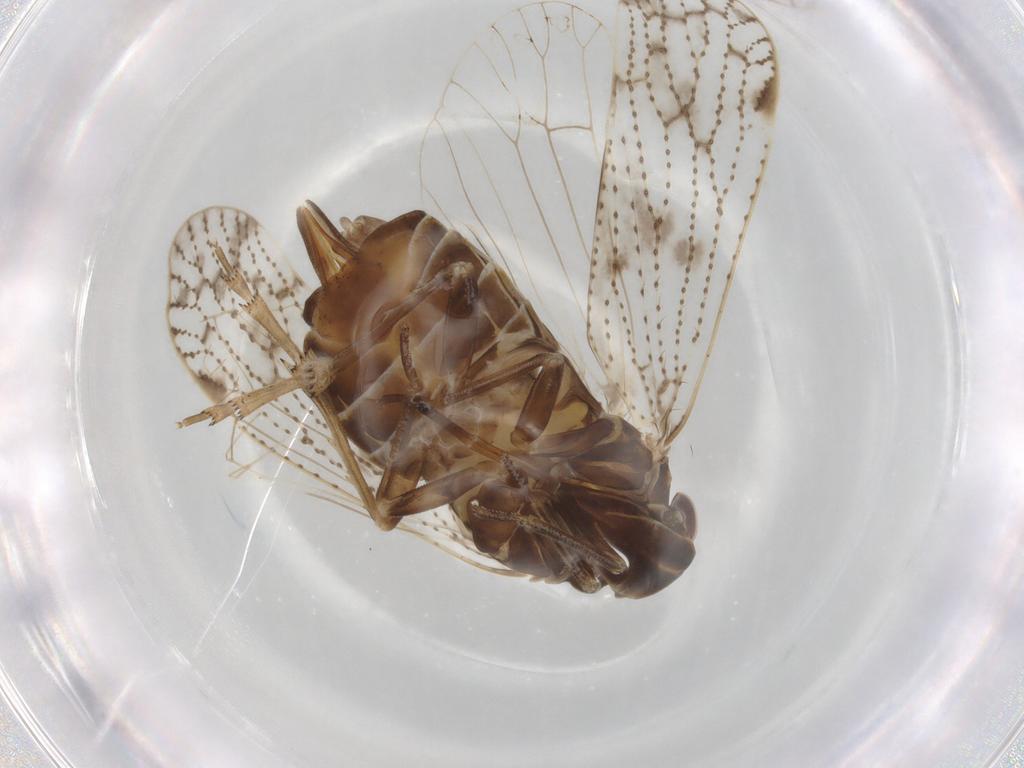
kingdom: Animalia
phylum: Arthropoda
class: Insecta
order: Hemiptera
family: Cixiidae
